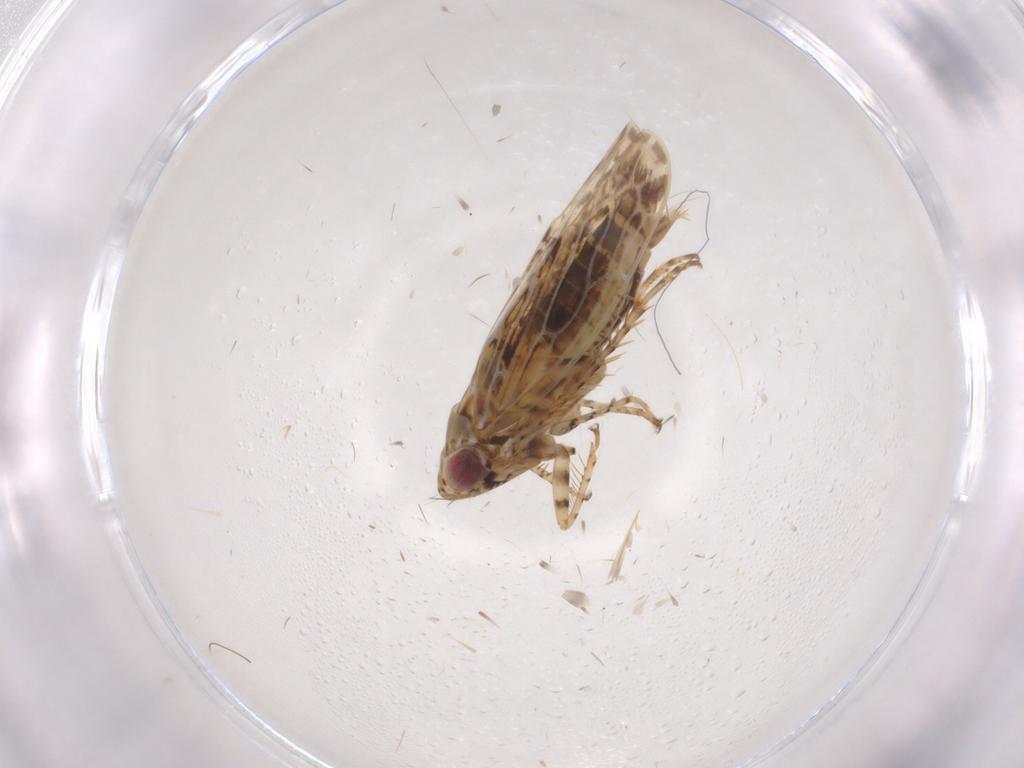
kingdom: Animalia
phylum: Arthropoda
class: Insecta
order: Hemiptera
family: Cicadellidae
